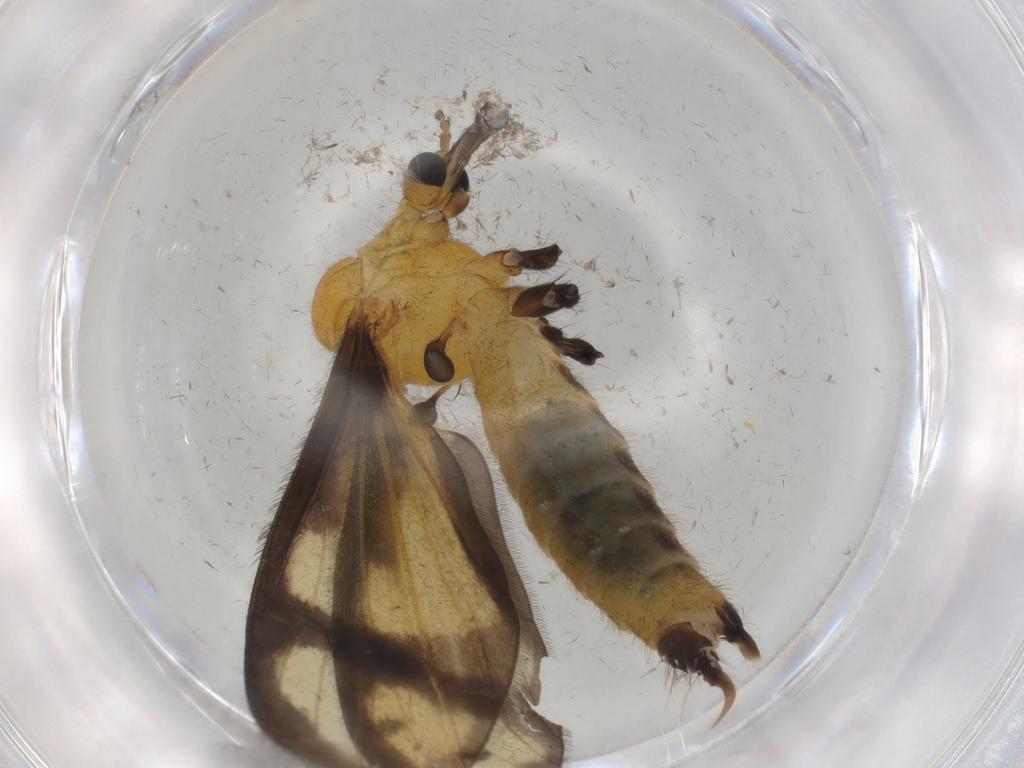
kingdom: Animalia
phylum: Arthropoda
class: Insecta
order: Diptera
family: Limoniidae
